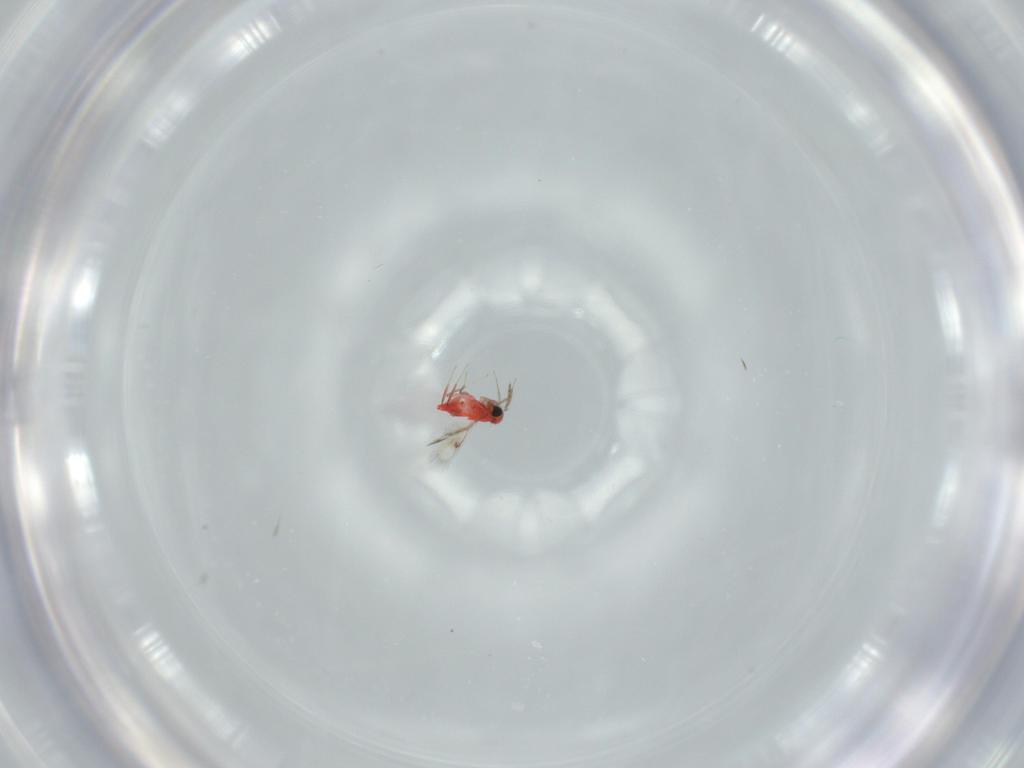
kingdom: Animalia
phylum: Arthropoda
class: Insecta
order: Hymenoptera
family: Trichogrammatidae
